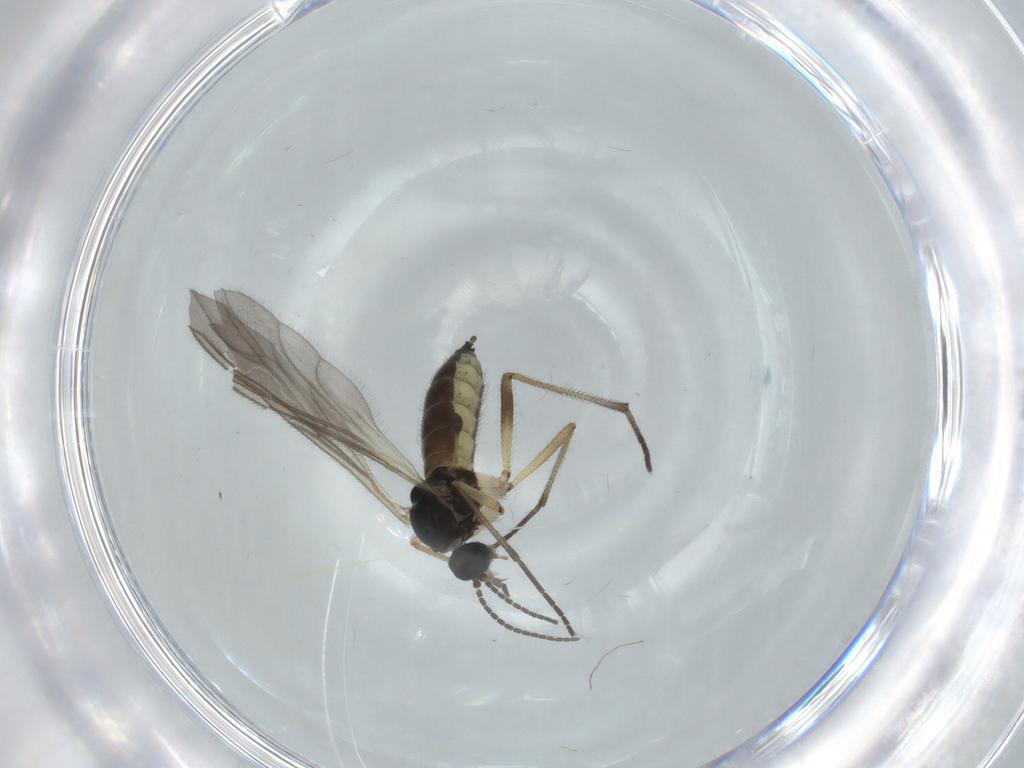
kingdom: Animalia
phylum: Arthropoda
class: Insecta
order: Diptera
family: Sciaridae
